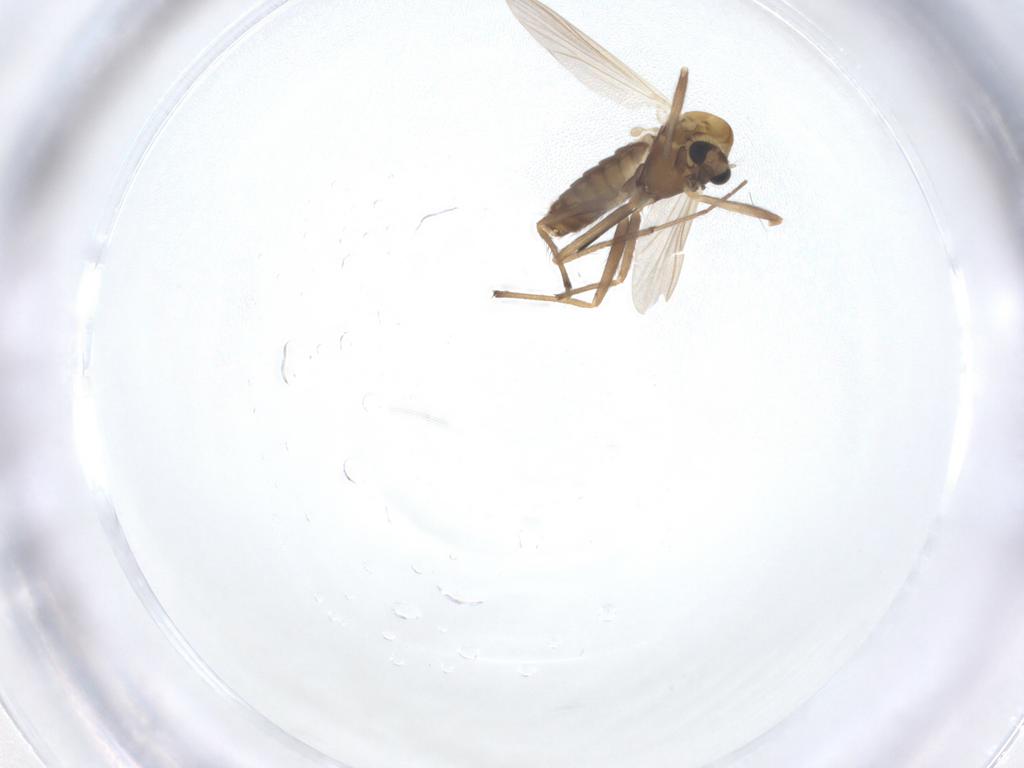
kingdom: Animalia
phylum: Arthropoda
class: Insecta
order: Diptera
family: Chironomidae
